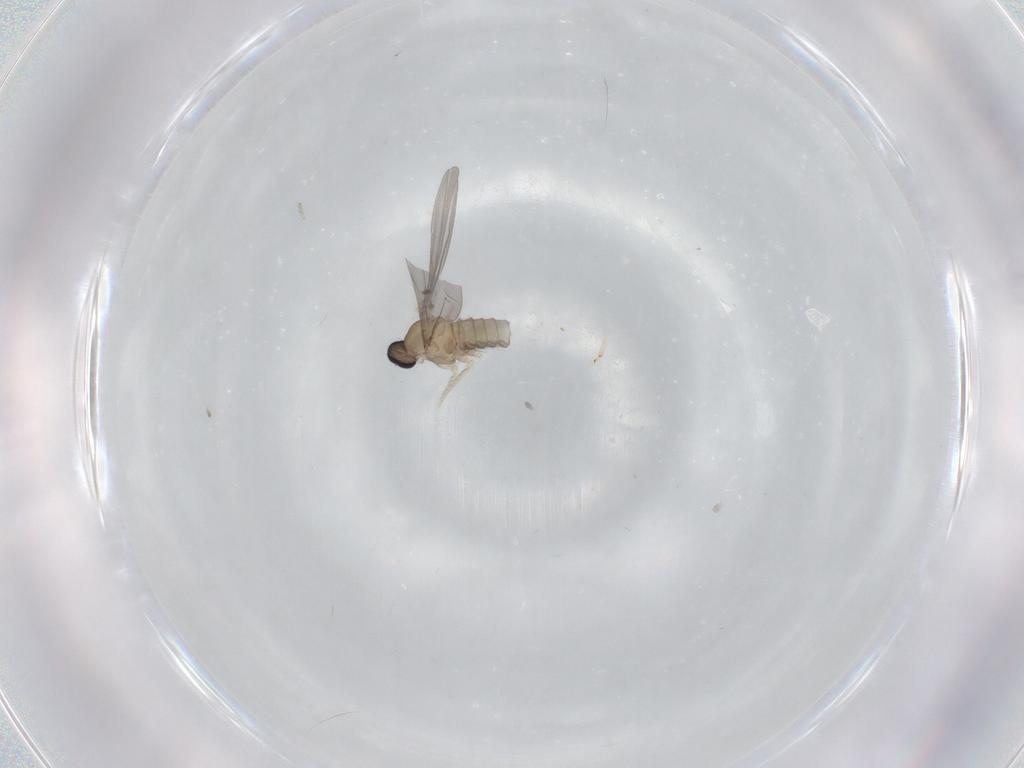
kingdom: Animalia
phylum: Arthropoda
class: Insecta
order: Diptera
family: Cecidomyiidae
